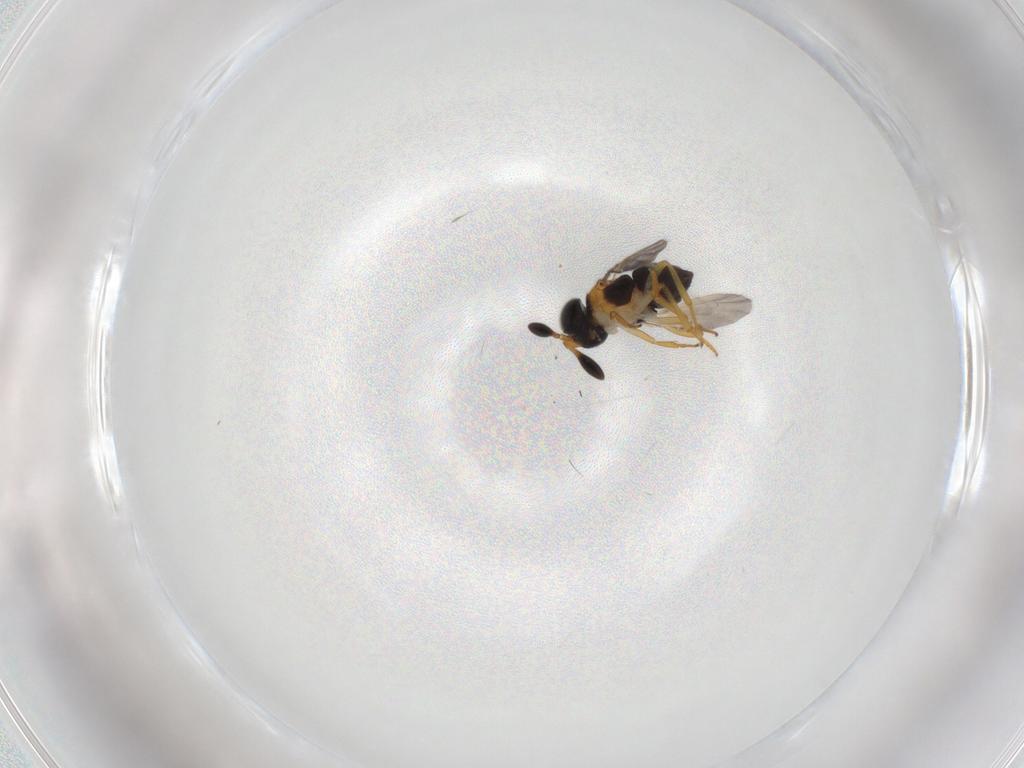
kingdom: Animalia
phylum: Arthropoda
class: Insecta
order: Hymenoptera
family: Encyrtidae
